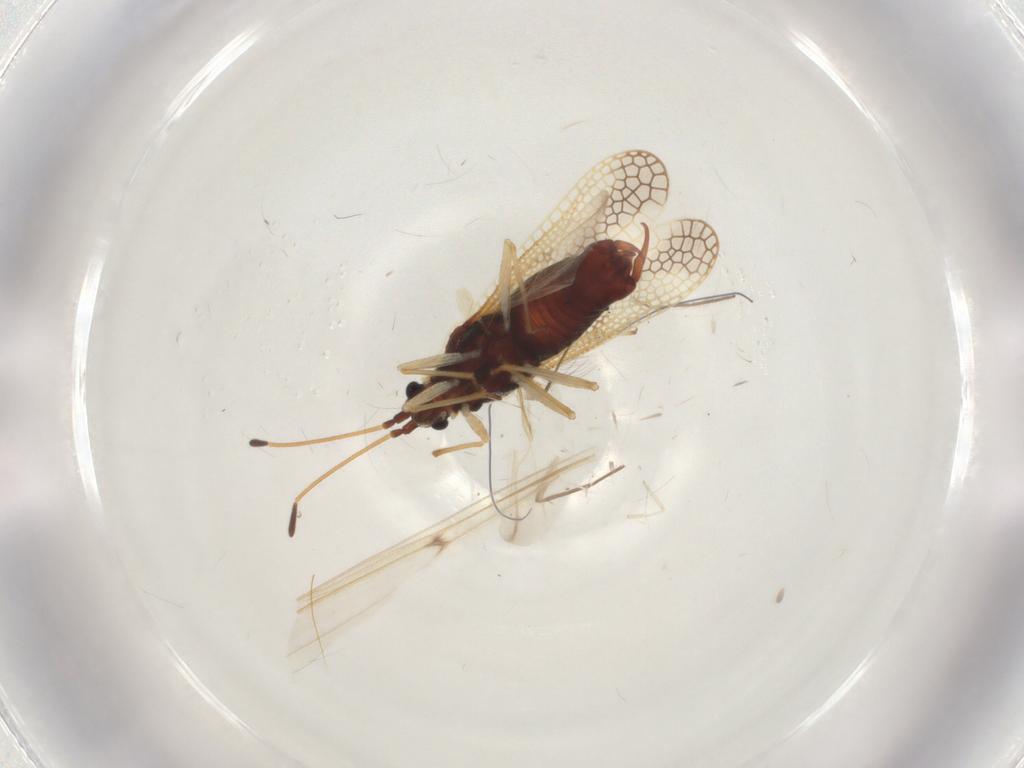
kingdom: Animalia
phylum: Arthropoda
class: Insecta
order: Hemiptera
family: Tingidae
